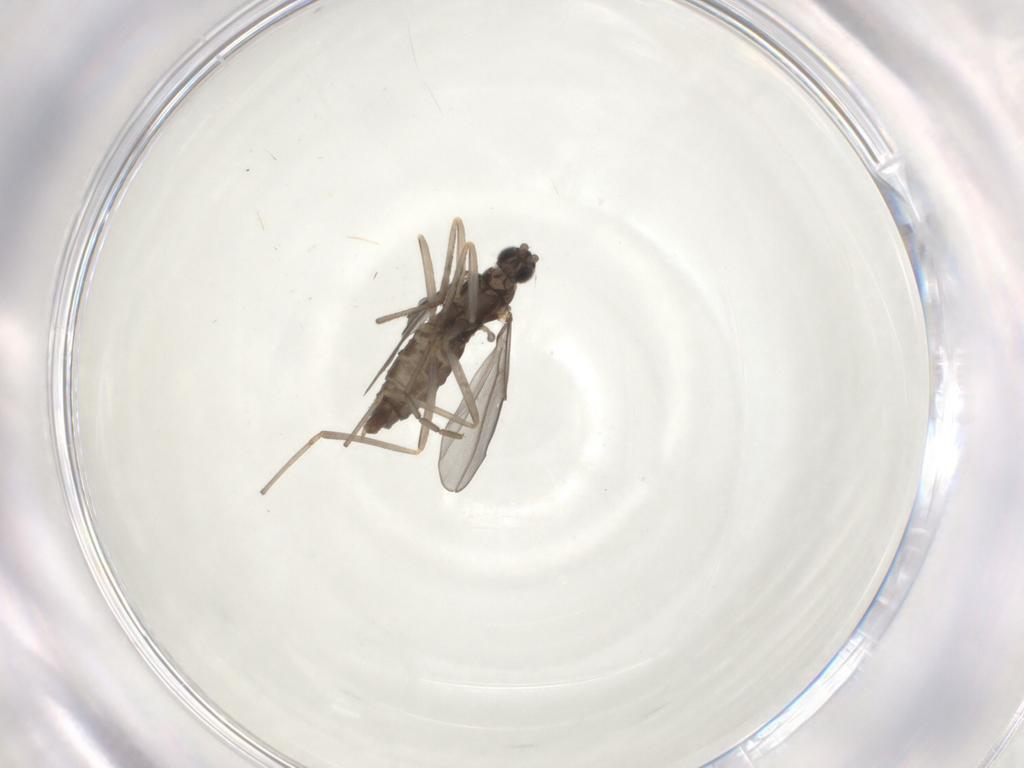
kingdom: Animalia
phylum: Arthropoda
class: Insecta
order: Diptera
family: Cecidomyiidae
